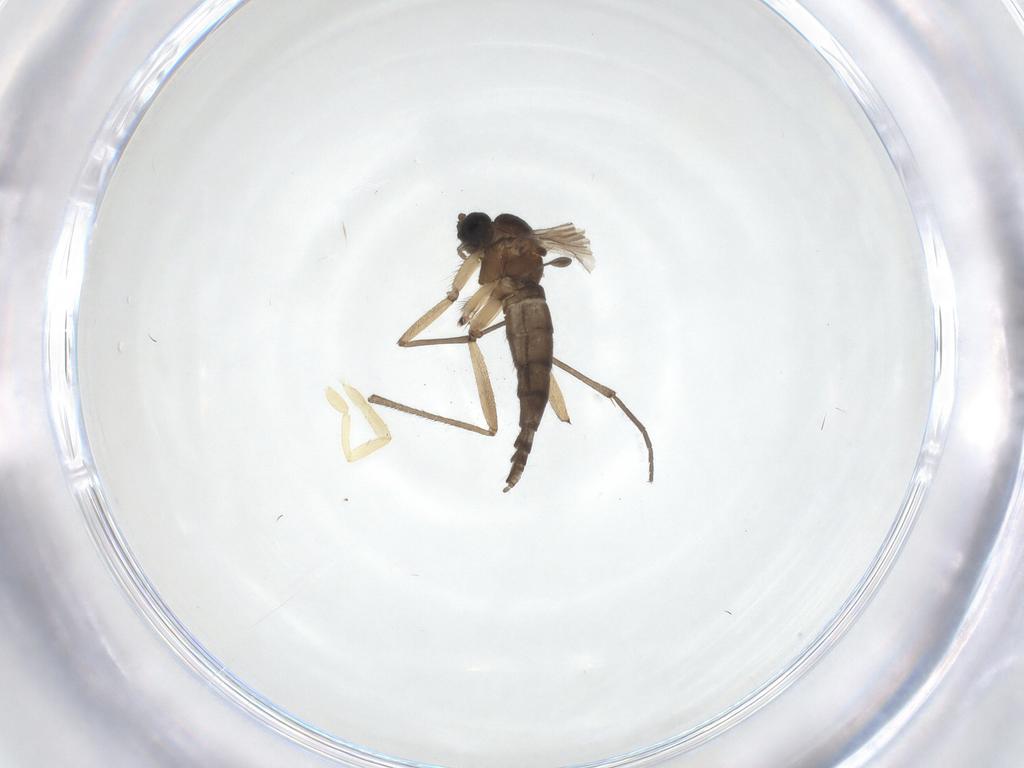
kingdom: Animalia
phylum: Arthropoda
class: Insecta
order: Diptera
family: Sciaridae
